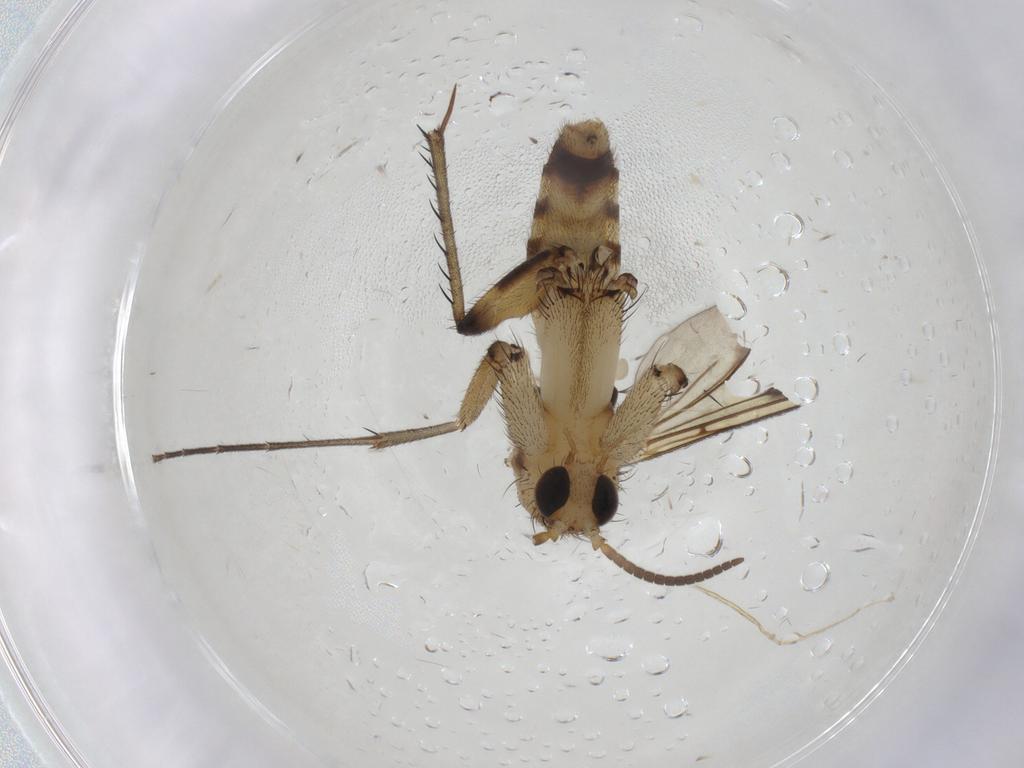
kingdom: Animalia
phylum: Arthropoda
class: Insecta
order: Diptera
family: Mycetophilidae
